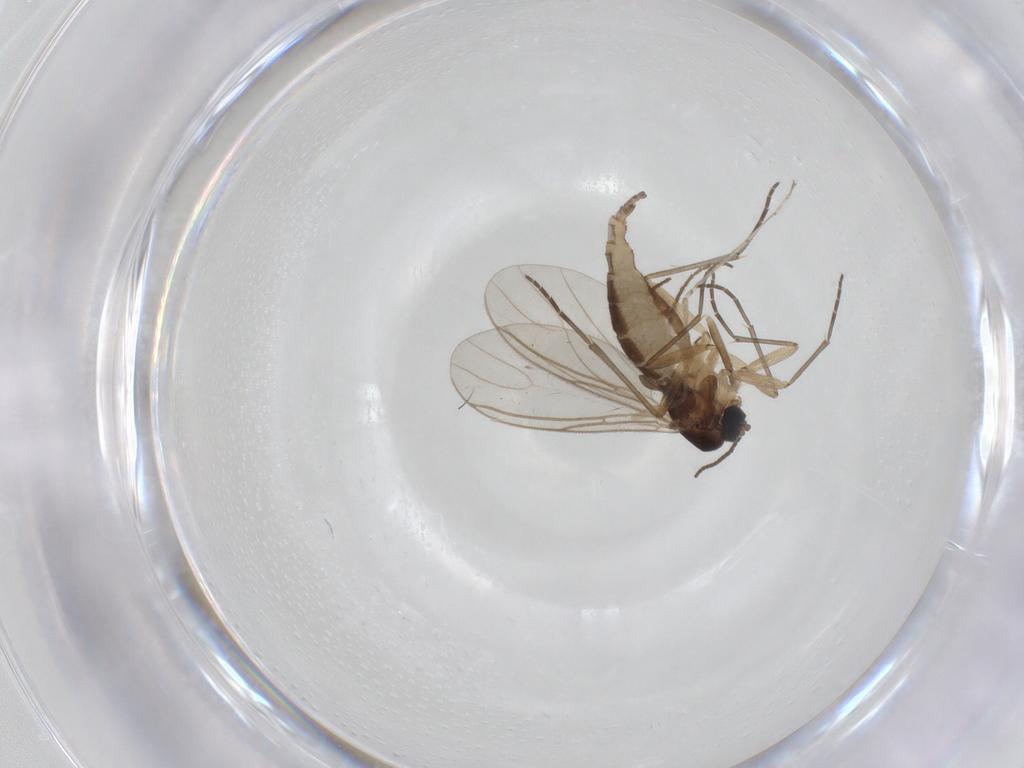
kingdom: Animalia
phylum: Arthropoda
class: Insecta
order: Diptera
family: Sciaridae
